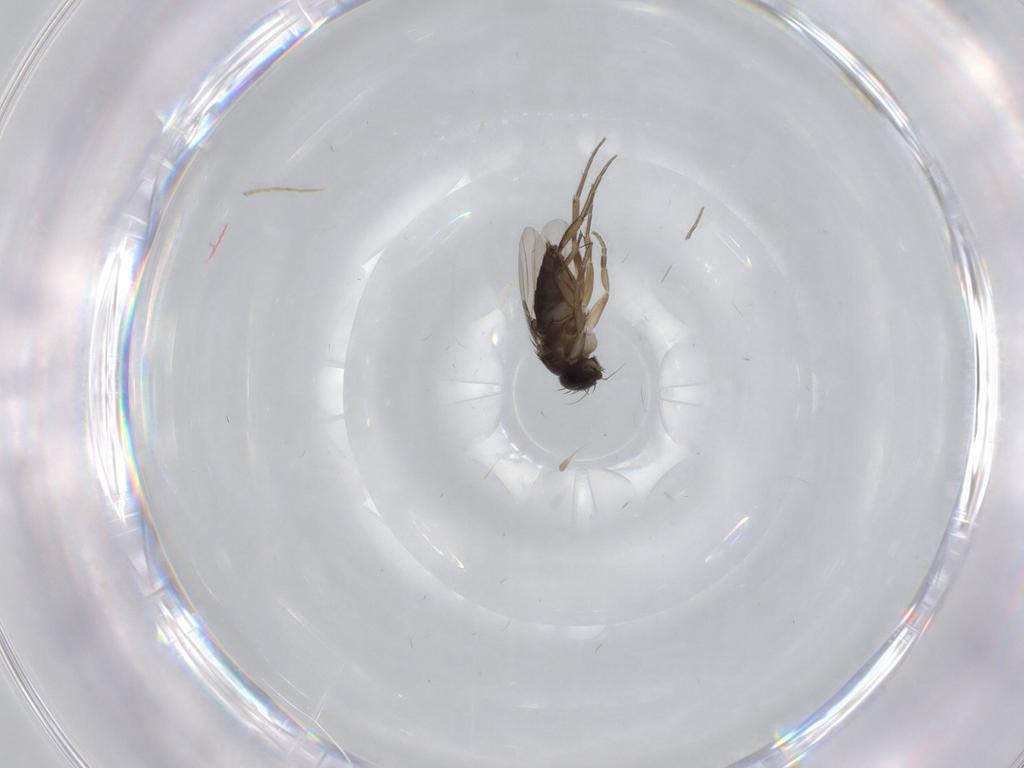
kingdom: Animalia
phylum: Arthropoda
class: Insecta
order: Diptera
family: Phoridae
